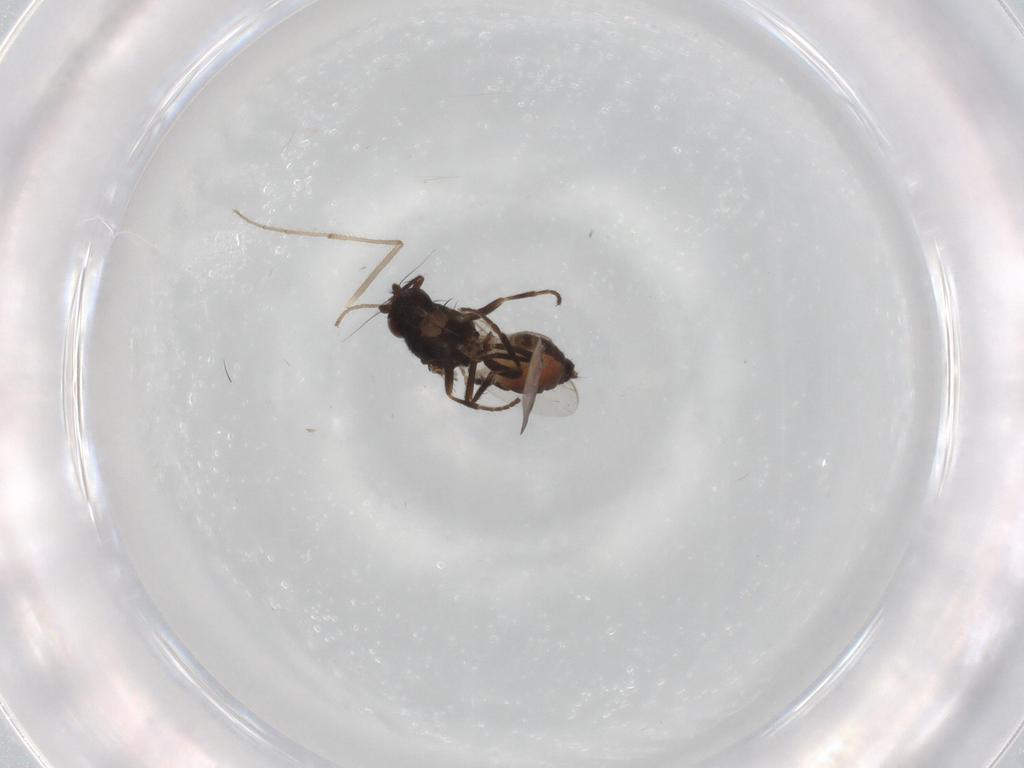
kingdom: Animalia
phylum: Arthropoda
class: Insecta
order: Diptera
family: Sphaeroceridae
